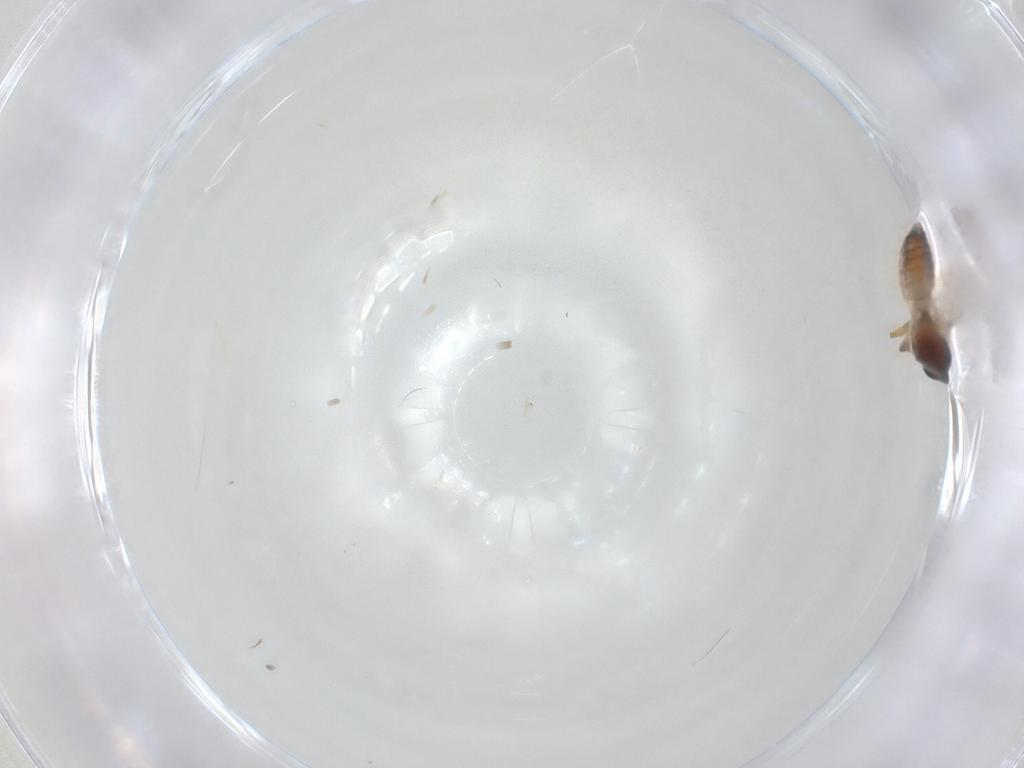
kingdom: Animalia
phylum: Arthropoda
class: Insecta
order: Diptera
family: Ceratopogonidae
